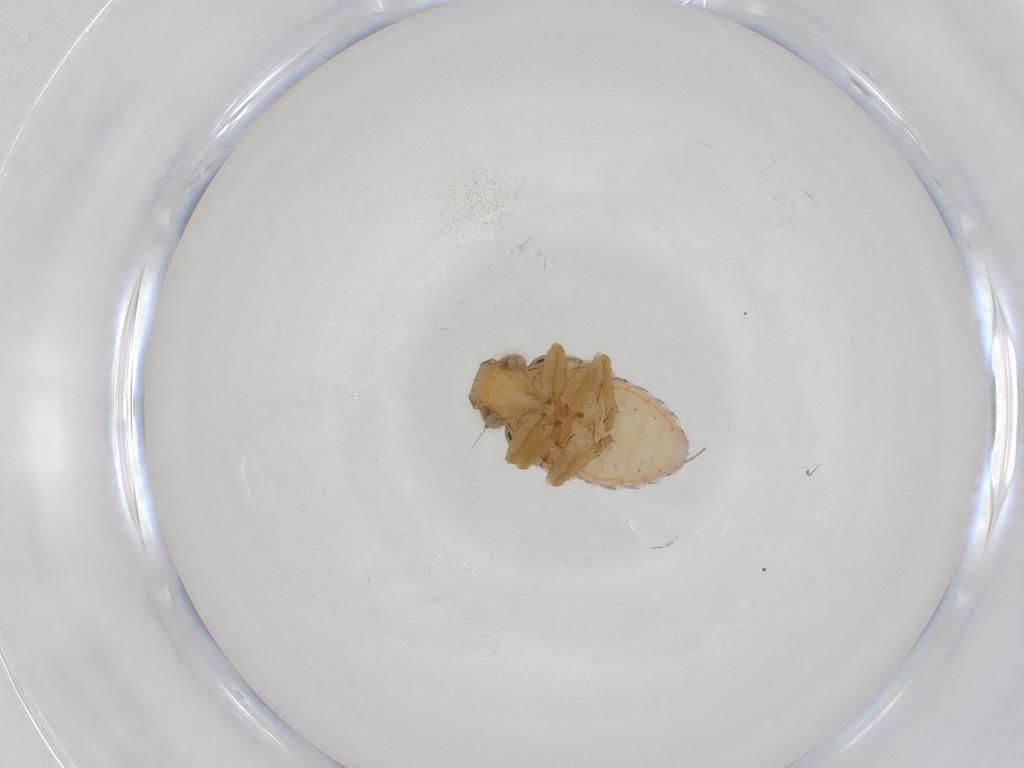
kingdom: Animalia
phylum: Arthropoda
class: Insecta
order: Hemiptera
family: Issidae
